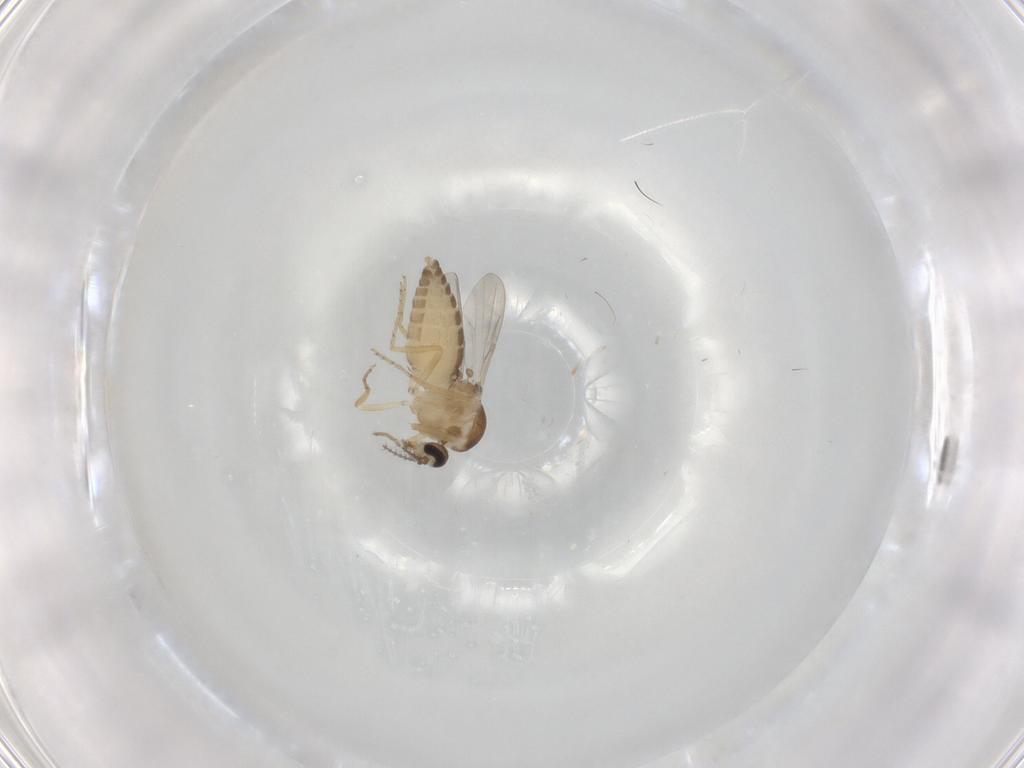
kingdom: Animalia
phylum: Arthropoda
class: Insecta
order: Diptera
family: Ceratopogonidae
